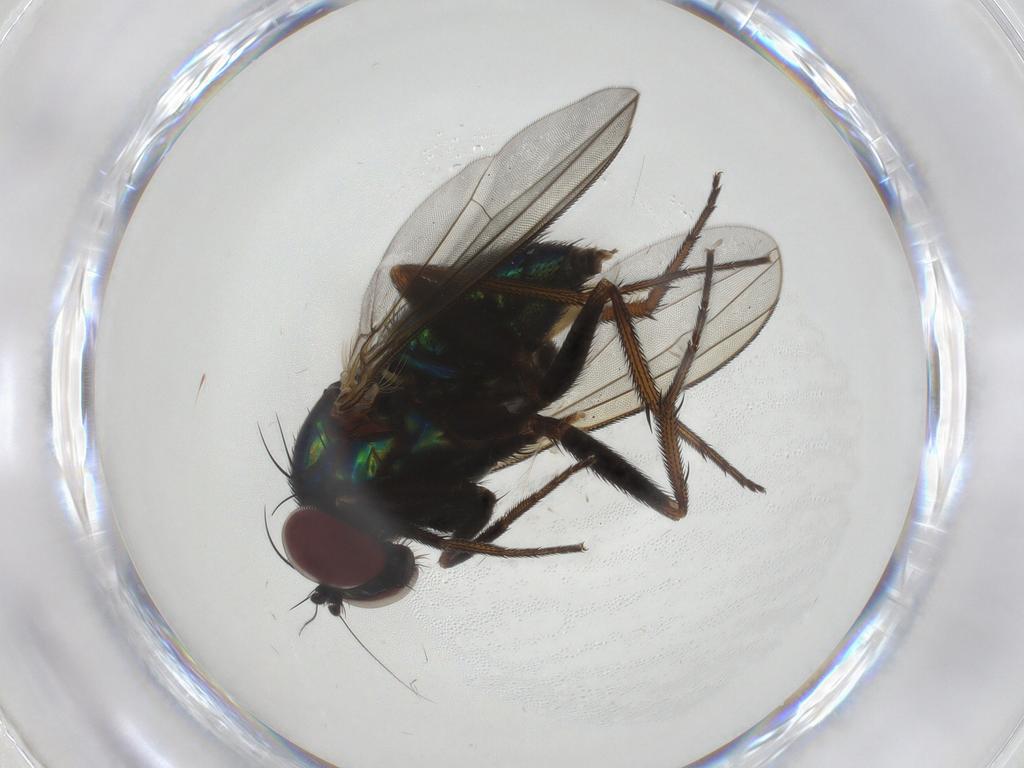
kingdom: Animalia
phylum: Arthropoda
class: Insecta
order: Diptera
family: Dolichopodidae
